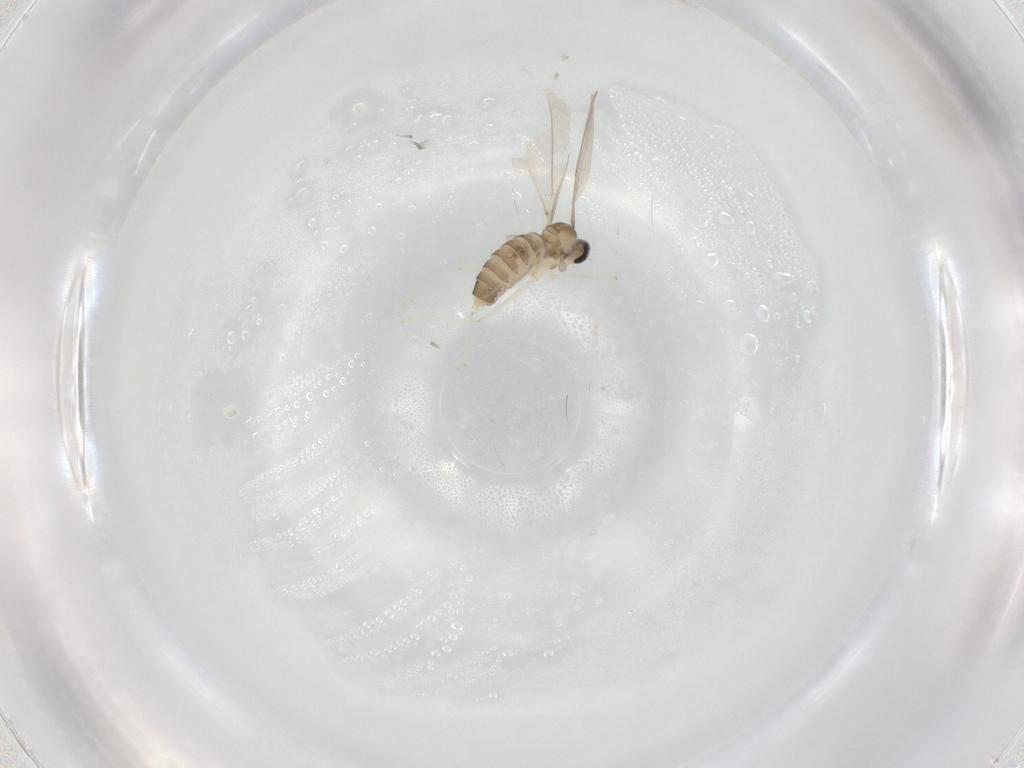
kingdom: Animalia
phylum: Arthropoda
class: Insecta
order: Diptera
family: Cecidomyiidae
